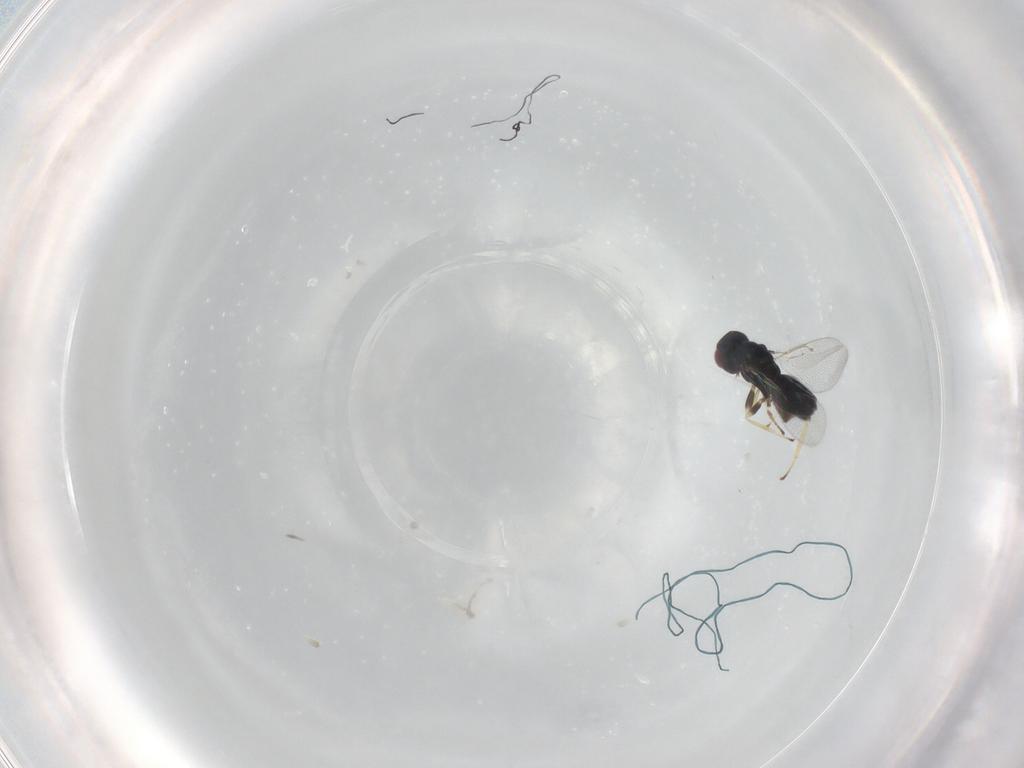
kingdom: Animalia
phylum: Arthropoda
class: Insecta
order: Hymenoptera
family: Eulophidae
